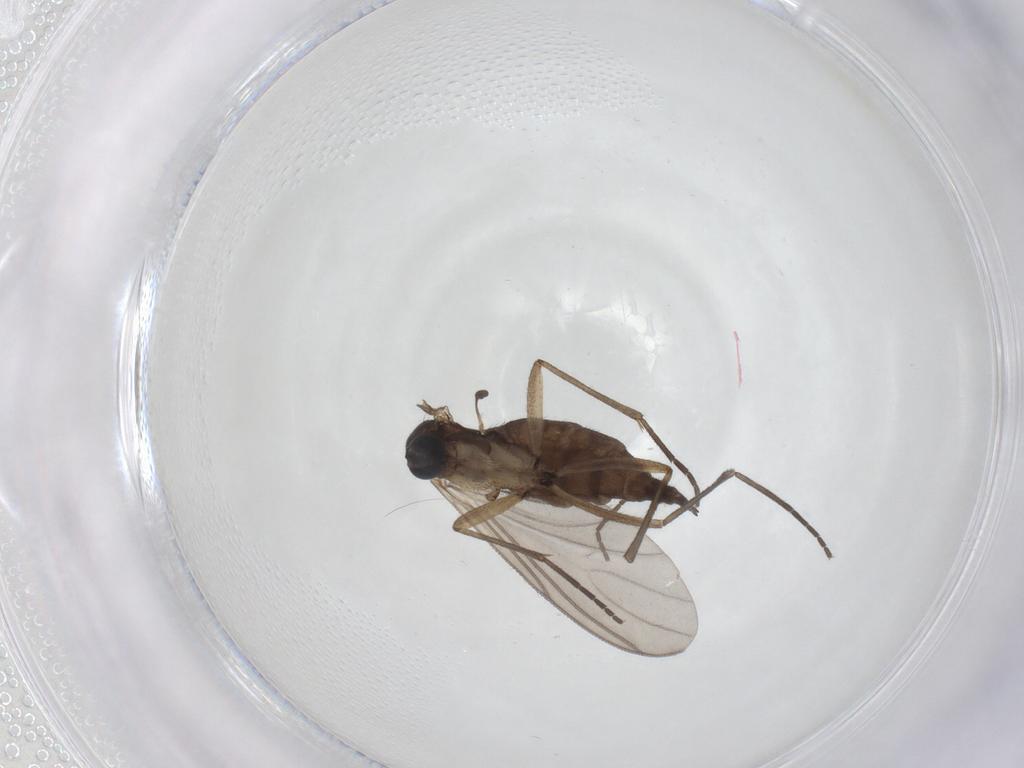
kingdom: Animalia
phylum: Arthropoda
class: Insecta
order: Diptera
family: Sciaridae
